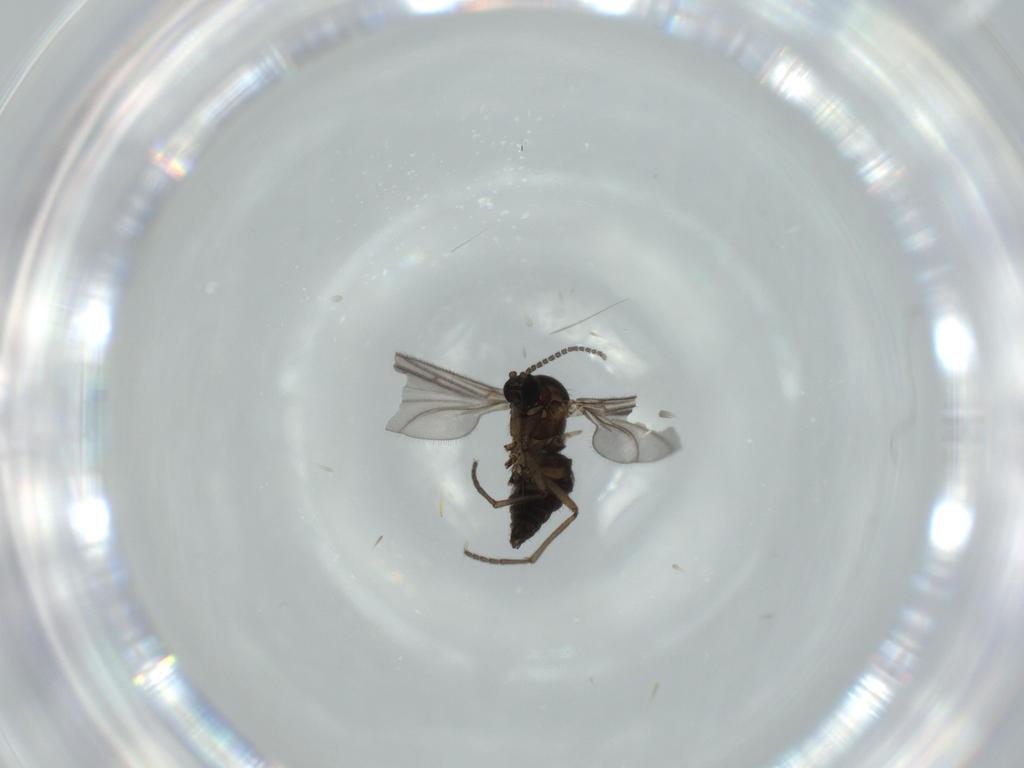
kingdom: Animalia
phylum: Arthropoda
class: Insecta
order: Diptera
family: Sciaridae
